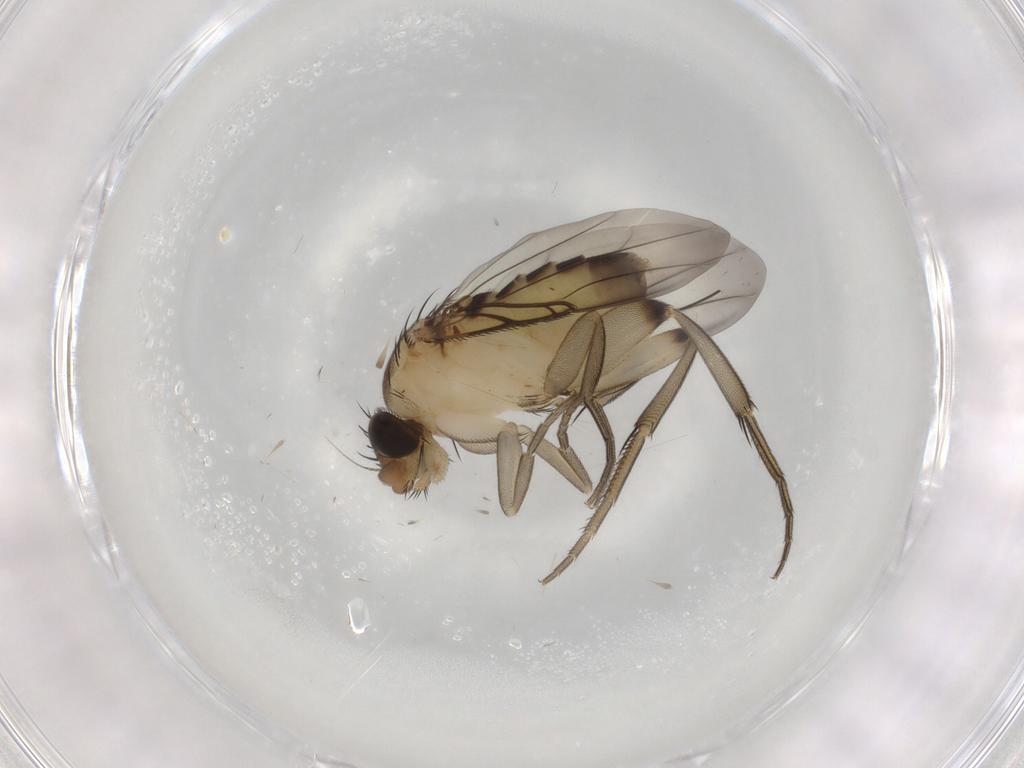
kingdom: Animalia
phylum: Arthropoda
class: Insecta
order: Diptera
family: Phoridae
